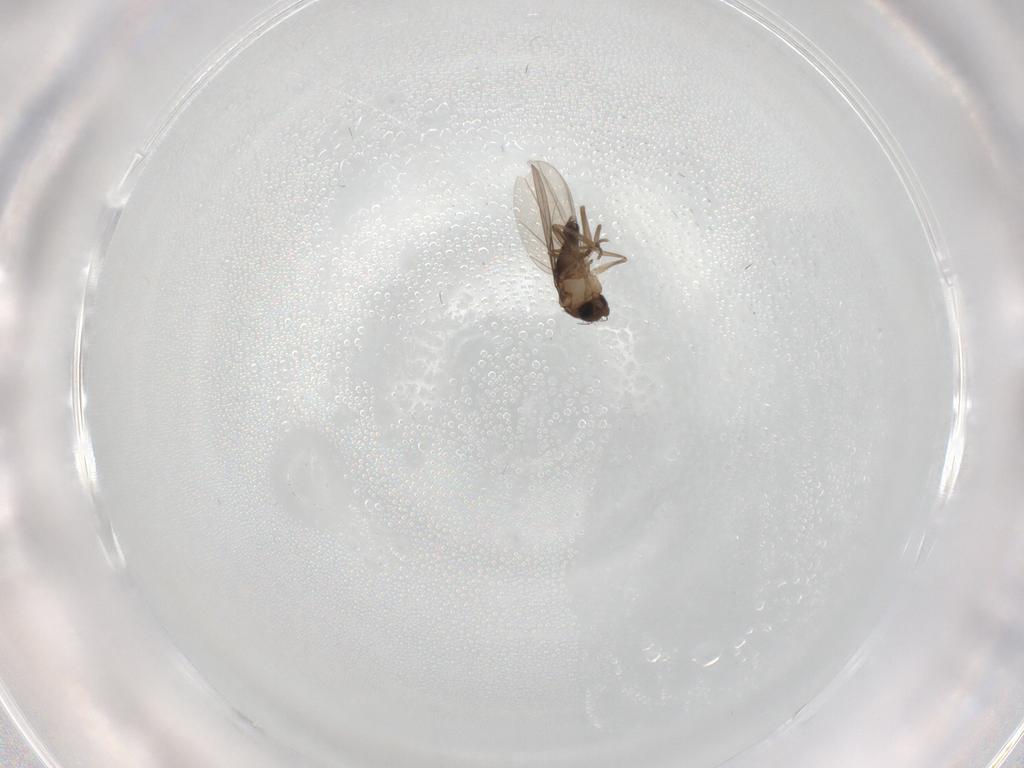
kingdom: Animalia
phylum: Arthropoda
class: Insecta
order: Diptera
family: Psychodidae
